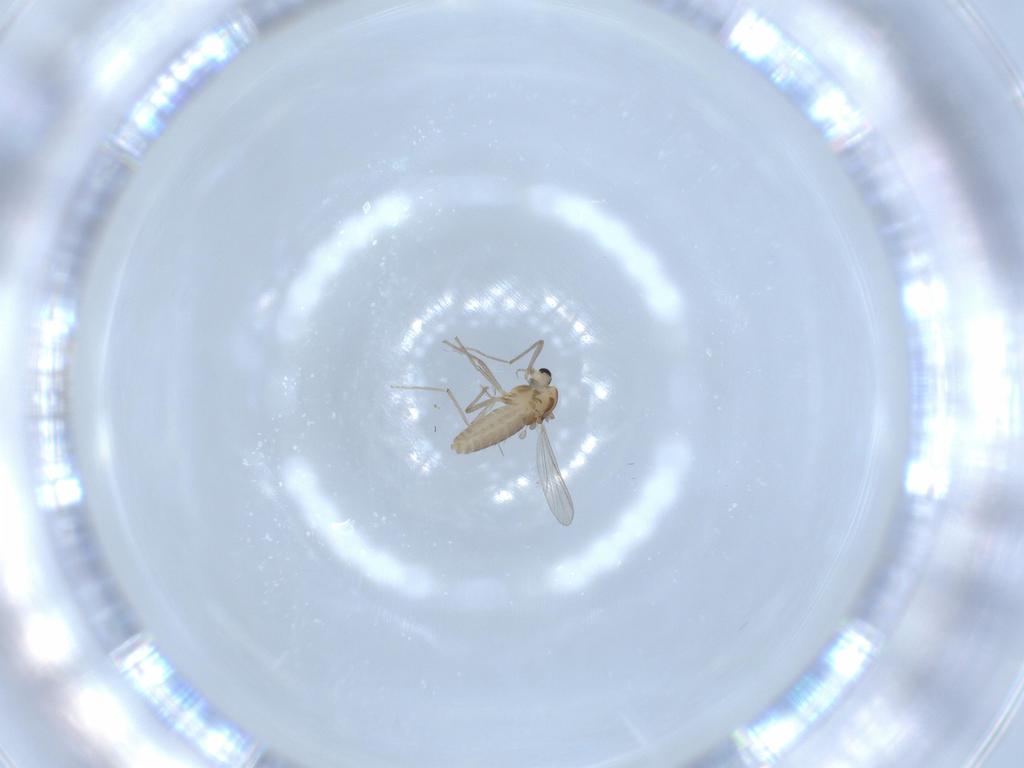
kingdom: Animalia
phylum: Arthropoda
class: Insecta
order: Diptera
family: Chironomidae
